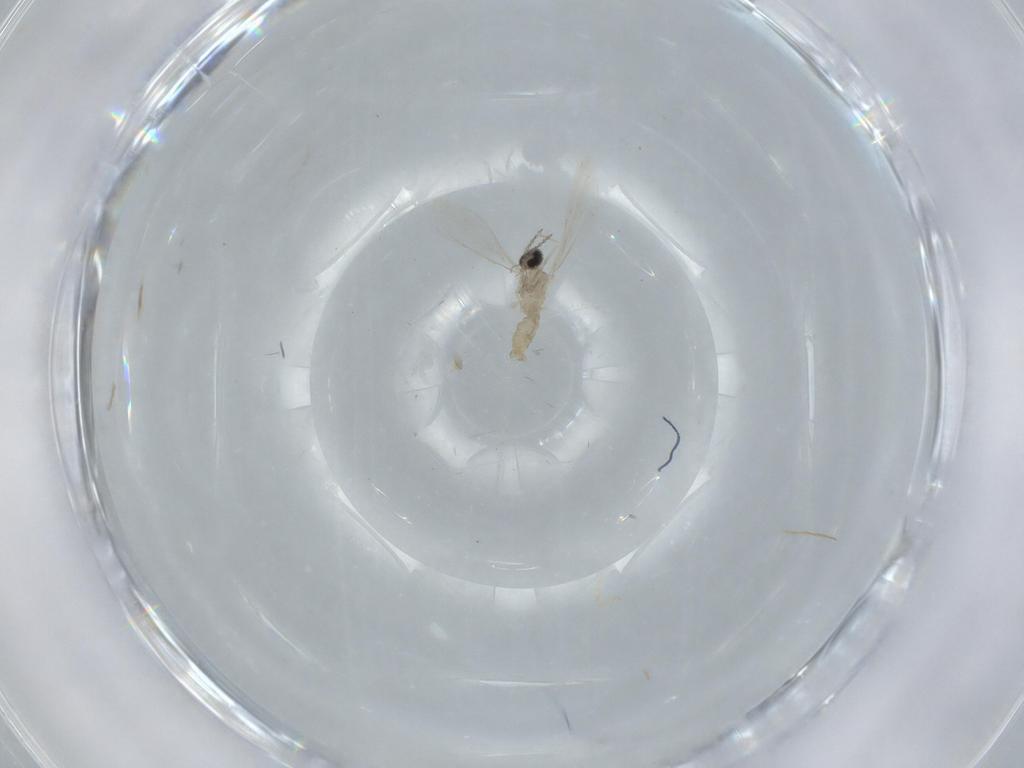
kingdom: Animalia
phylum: Arthropoda
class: Insecta
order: Diptera
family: Cecidomyiidae
